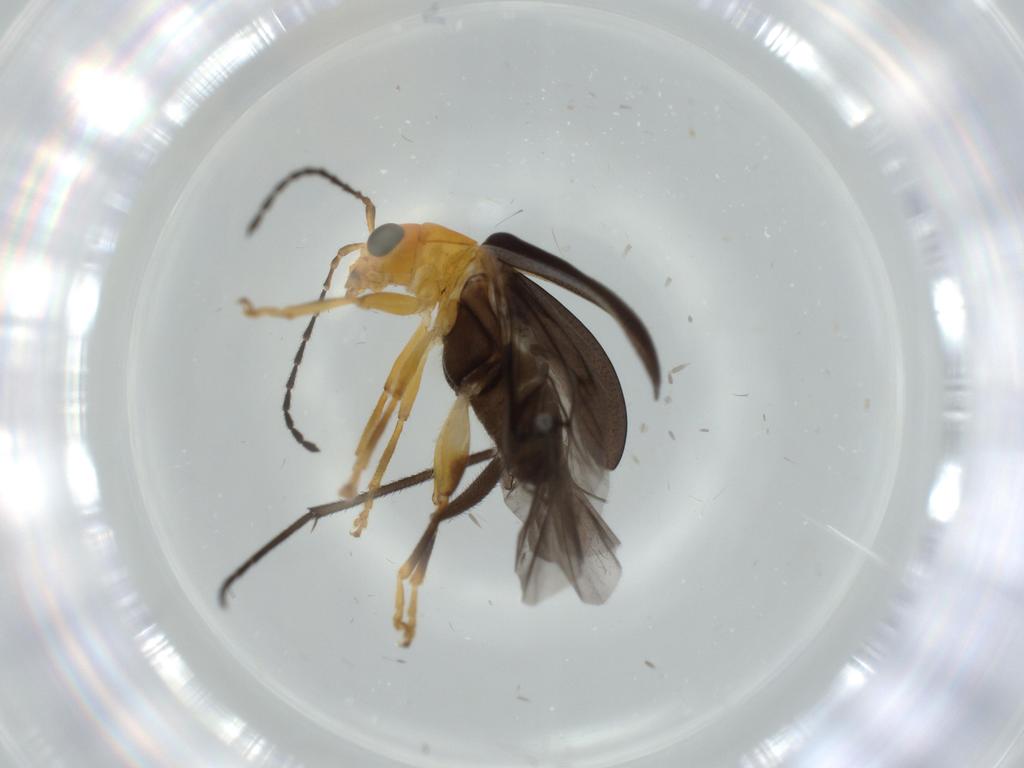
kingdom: Animalia
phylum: Arthropoda
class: Insecta
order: Coleoptera
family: Chrysomelidae
